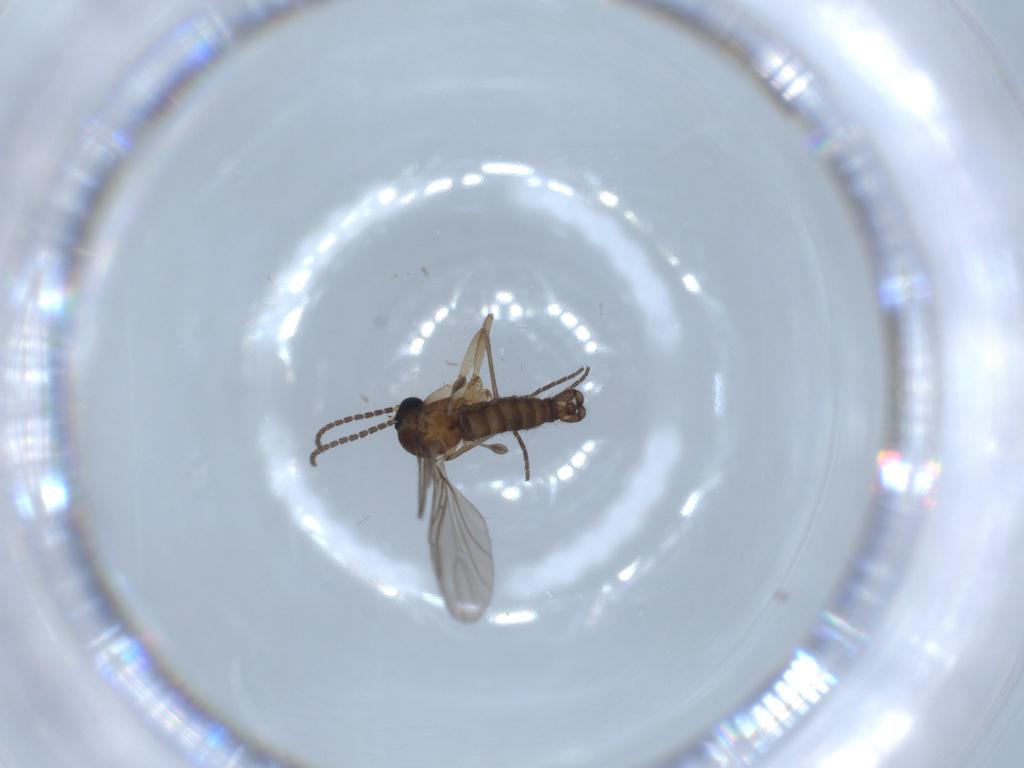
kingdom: Animalia
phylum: Arthropoda
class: Insecta
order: Diptera
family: Sciaridae
